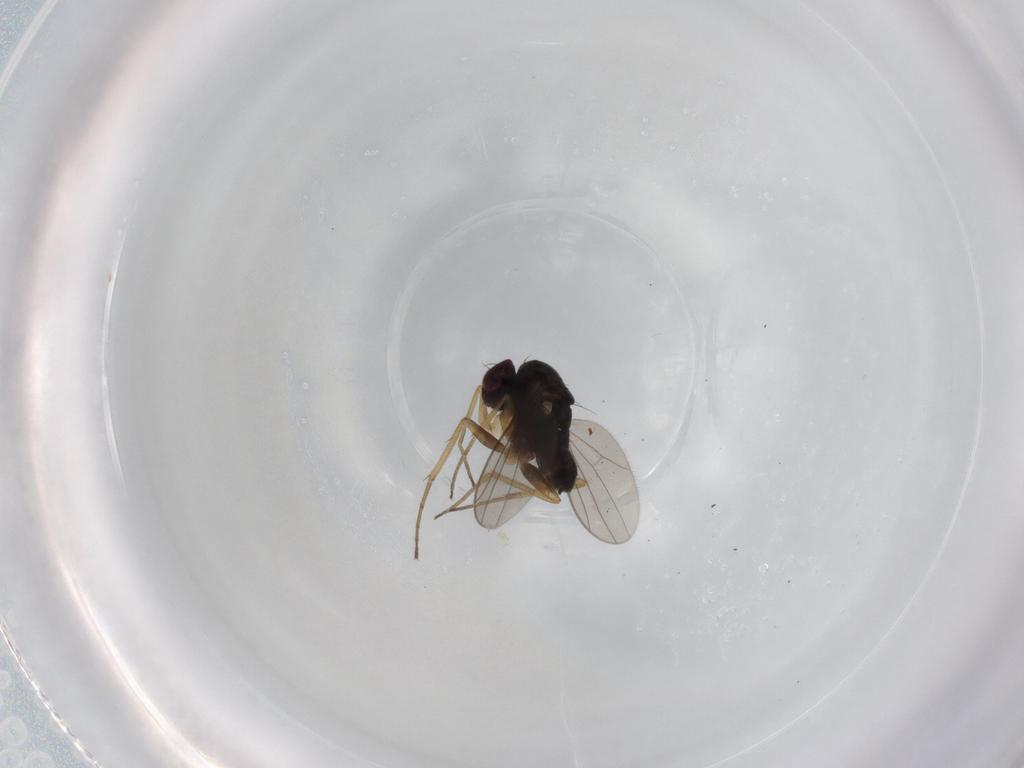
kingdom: Animalia
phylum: Arthropoda
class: Insecta
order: Diptera
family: Dolichopodidae
